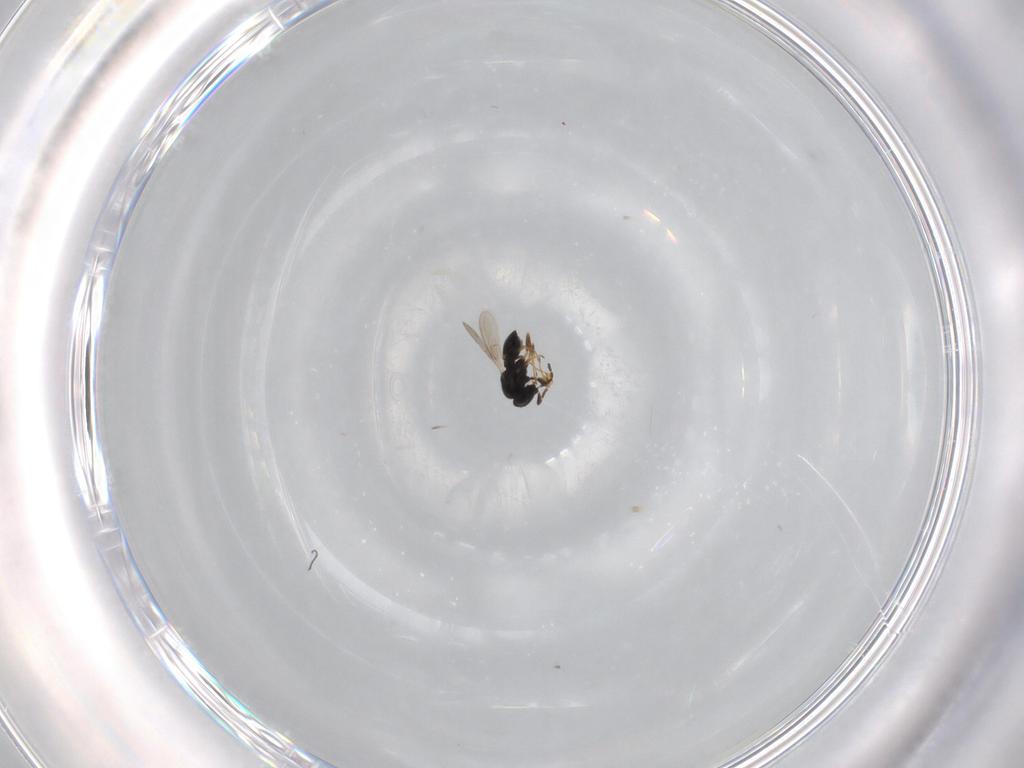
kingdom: Animalia
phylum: Arthropoda
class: Insecta
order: Hymenoptera
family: Scelionidae
